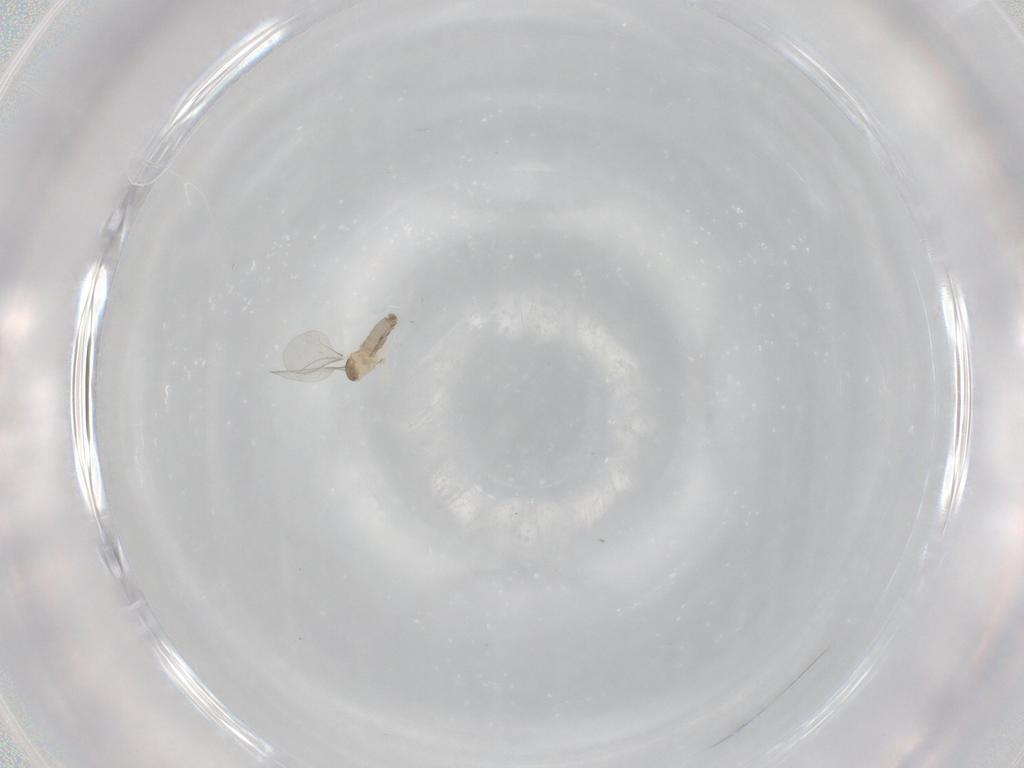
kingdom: Animalia
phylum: Arthropoda
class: Insecta
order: Diptera
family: Cecidomyiidae
